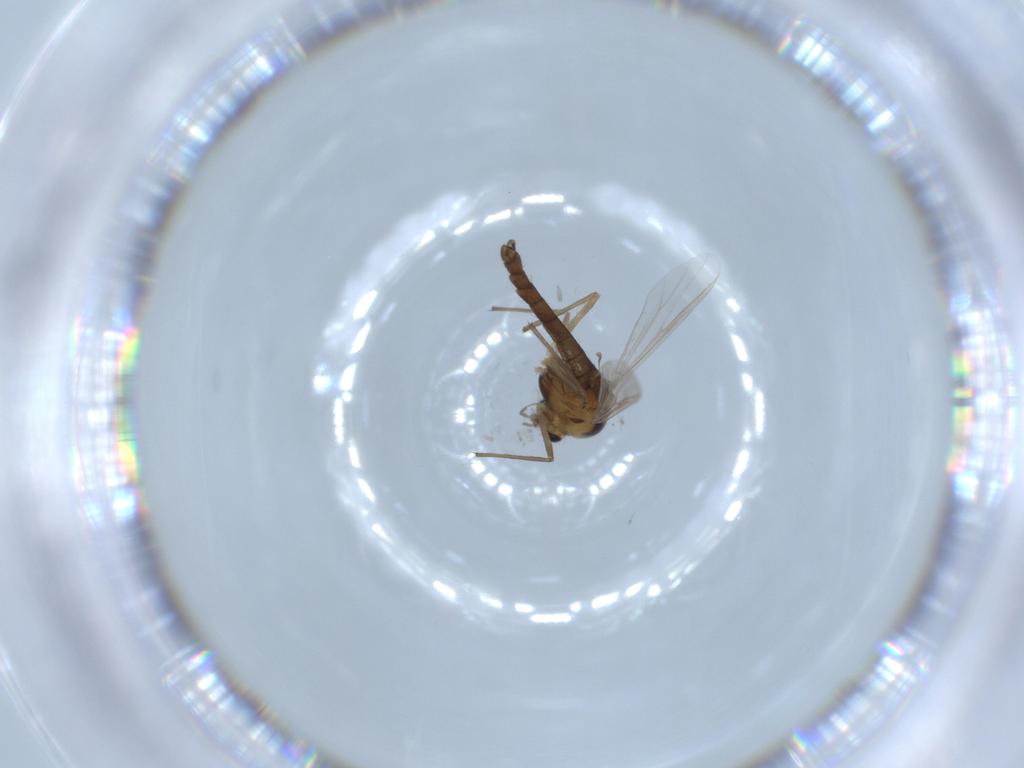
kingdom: Animalia
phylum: Arthropoda
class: Insecta
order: Diptera
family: Chironomidae
